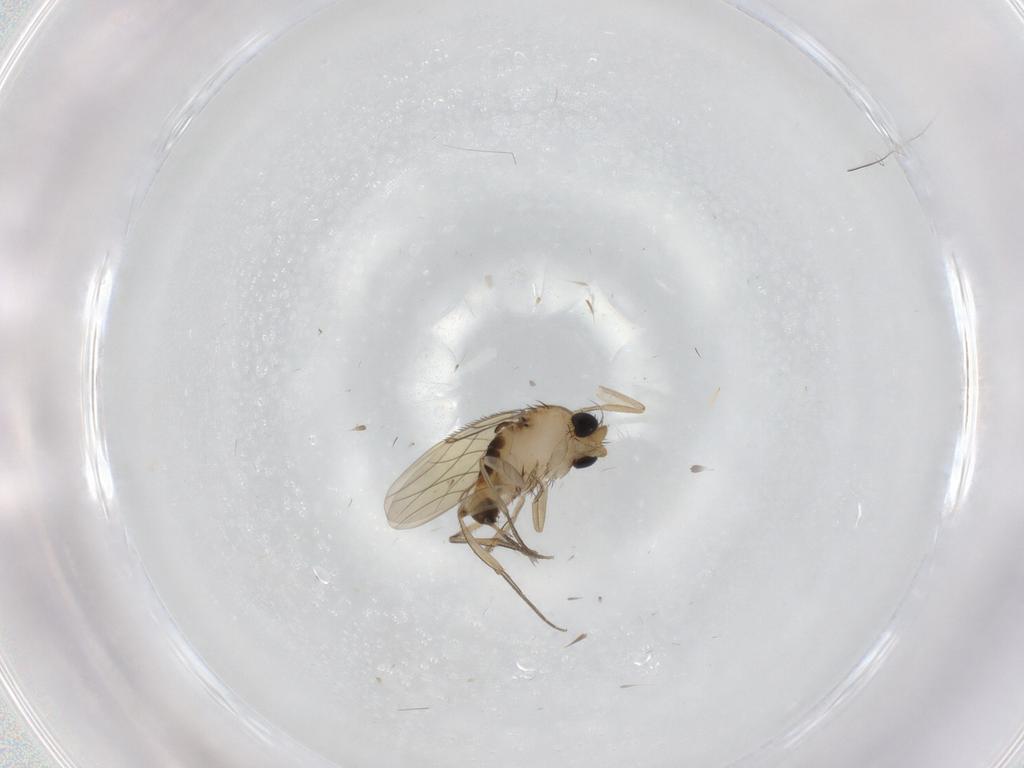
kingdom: Animalia
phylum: Arthropoda
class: Insecta
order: Diptera
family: Phoridae
